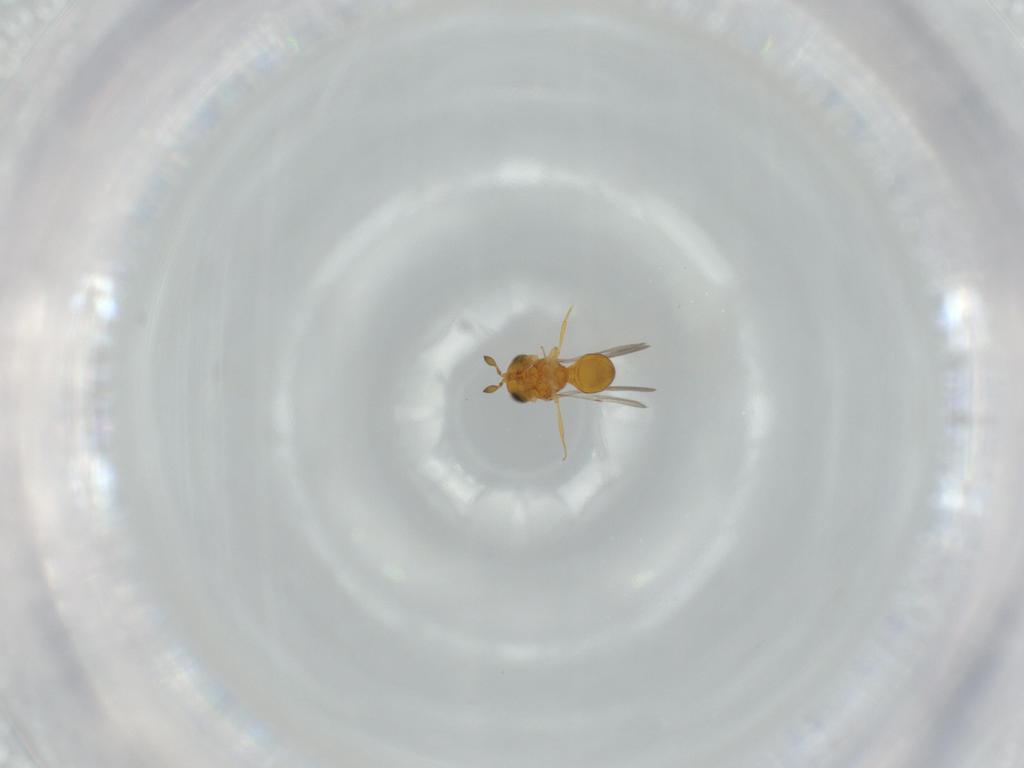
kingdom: Animalia
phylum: Arthropoda
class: Insecta
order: Hymenoptera
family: Scelionidae
